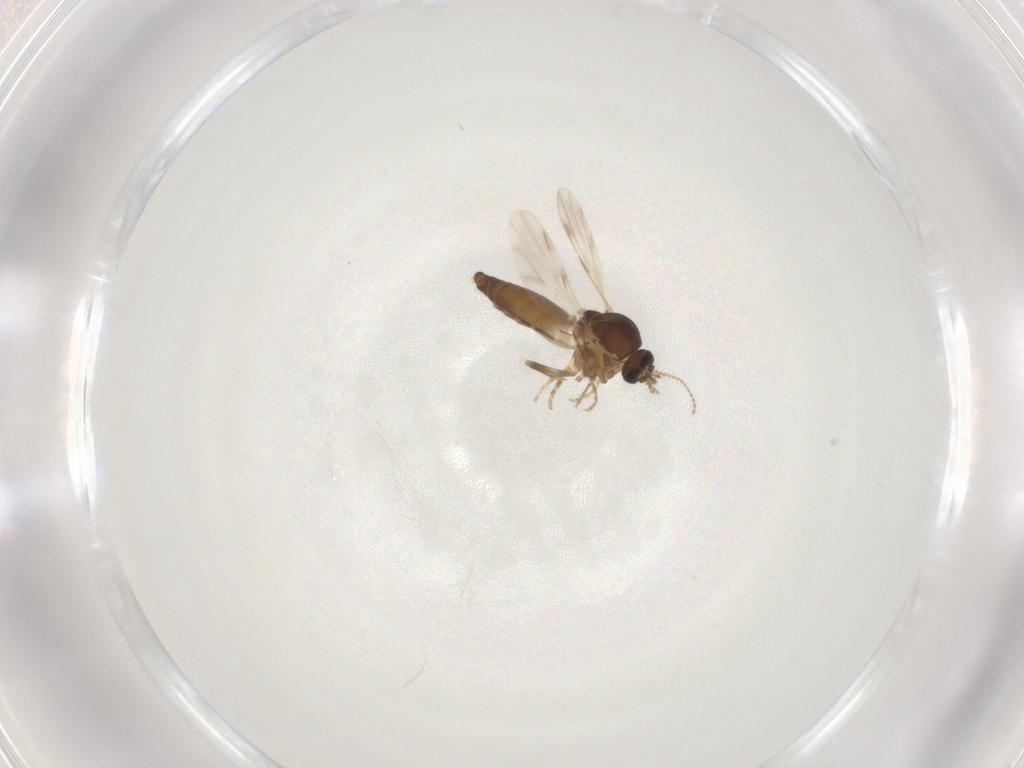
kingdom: Animalia
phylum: Arthropoda
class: Insecta
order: Diptera
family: Ceratopogonidae
